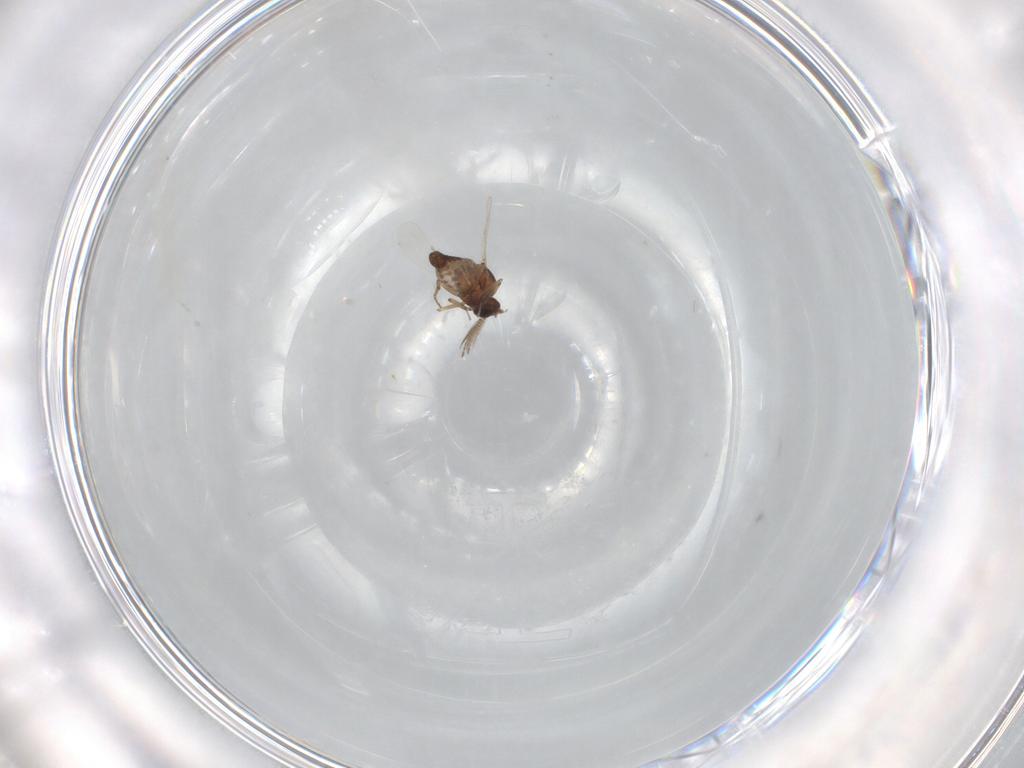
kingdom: Animalia
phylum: Arthropoda
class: Insecta
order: Diptera
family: Ceratopogonidae
